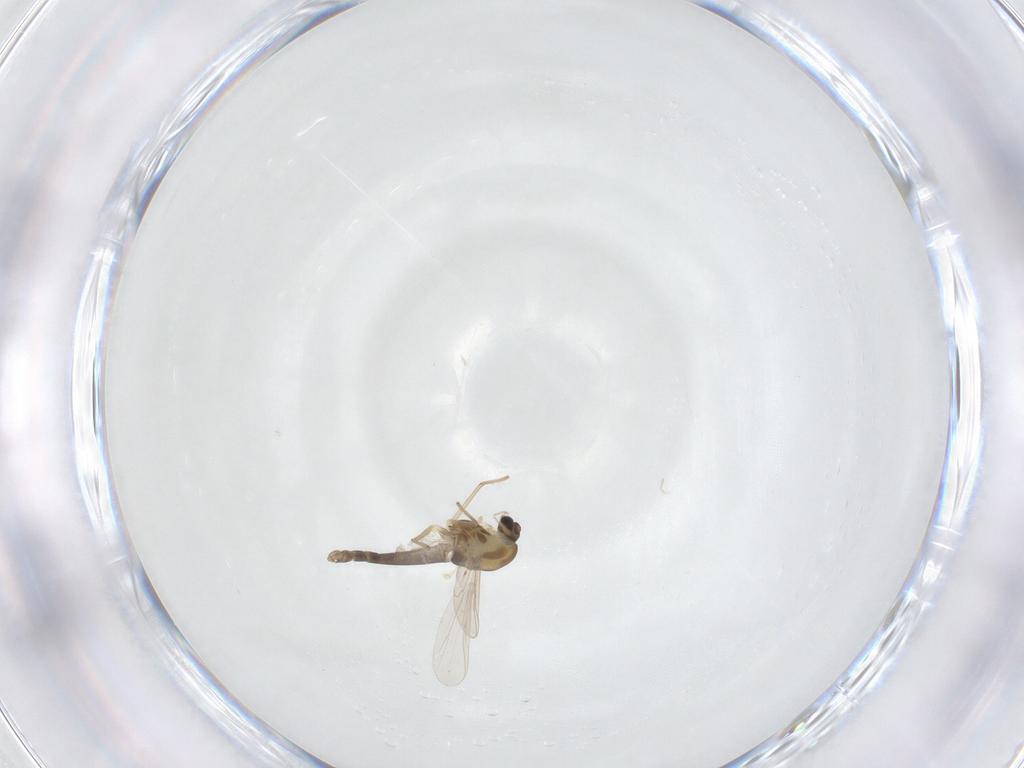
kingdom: Animalia
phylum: Arthropoda
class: Insecta
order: Diptera
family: Chironomidae
